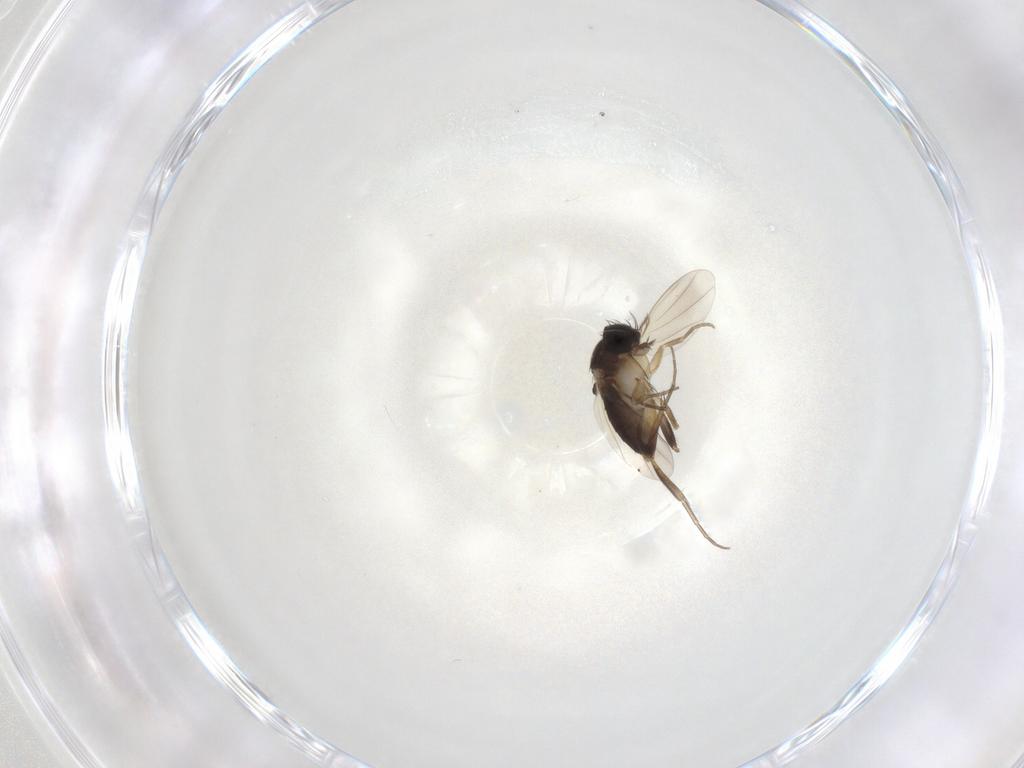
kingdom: Animalia
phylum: Arthropoda
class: Insecta
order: Diptera
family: Phoridae
